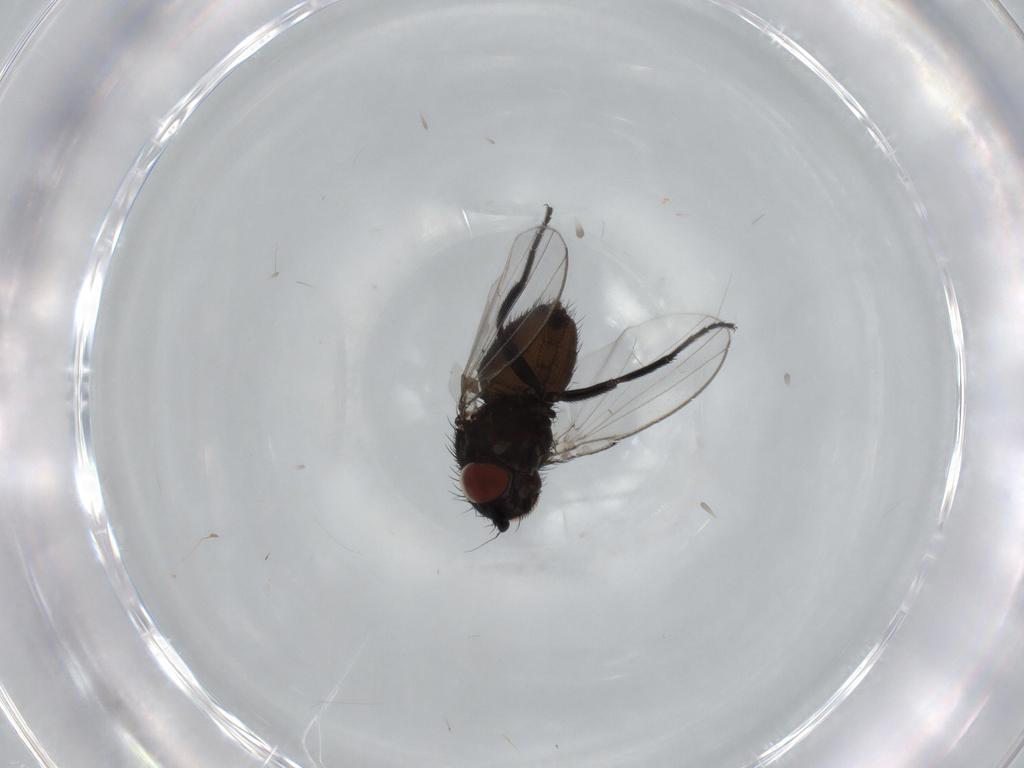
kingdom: Animalia
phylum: Arthropoda
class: Insecta
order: Diptera
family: Milichiidae
